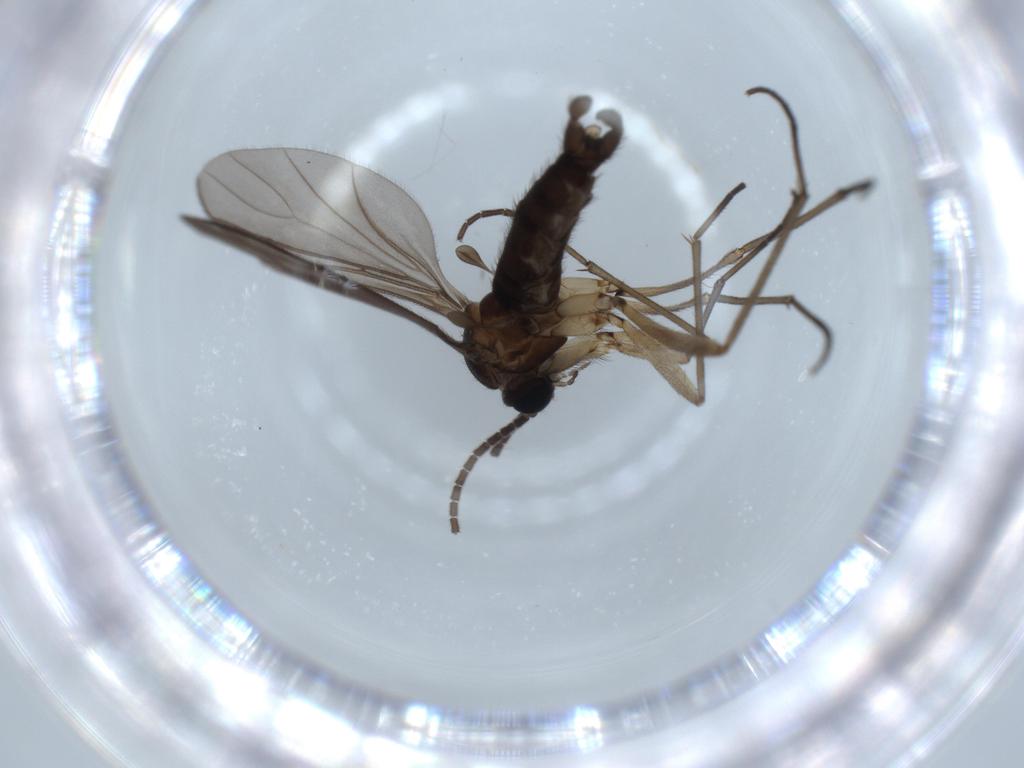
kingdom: Animalia
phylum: Arthropoda
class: Insecta
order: Diptera
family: Sciaridae
